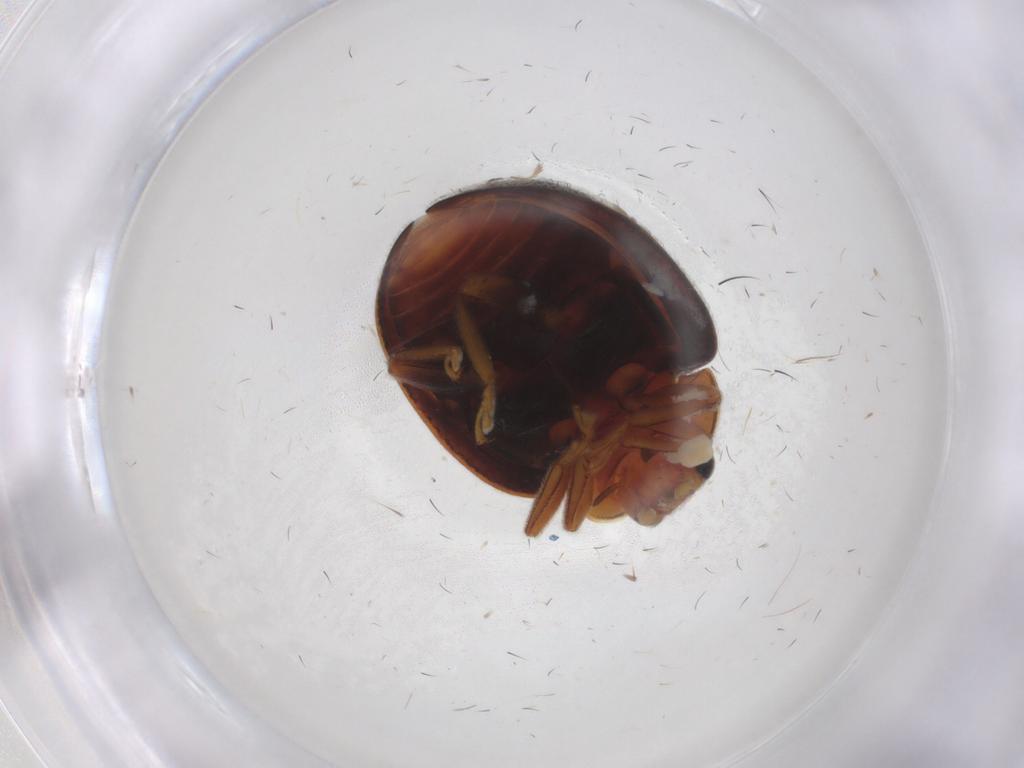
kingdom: Animalia
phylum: Arthropoda
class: Insecta
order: Coleoptera
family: Coccinellidae
